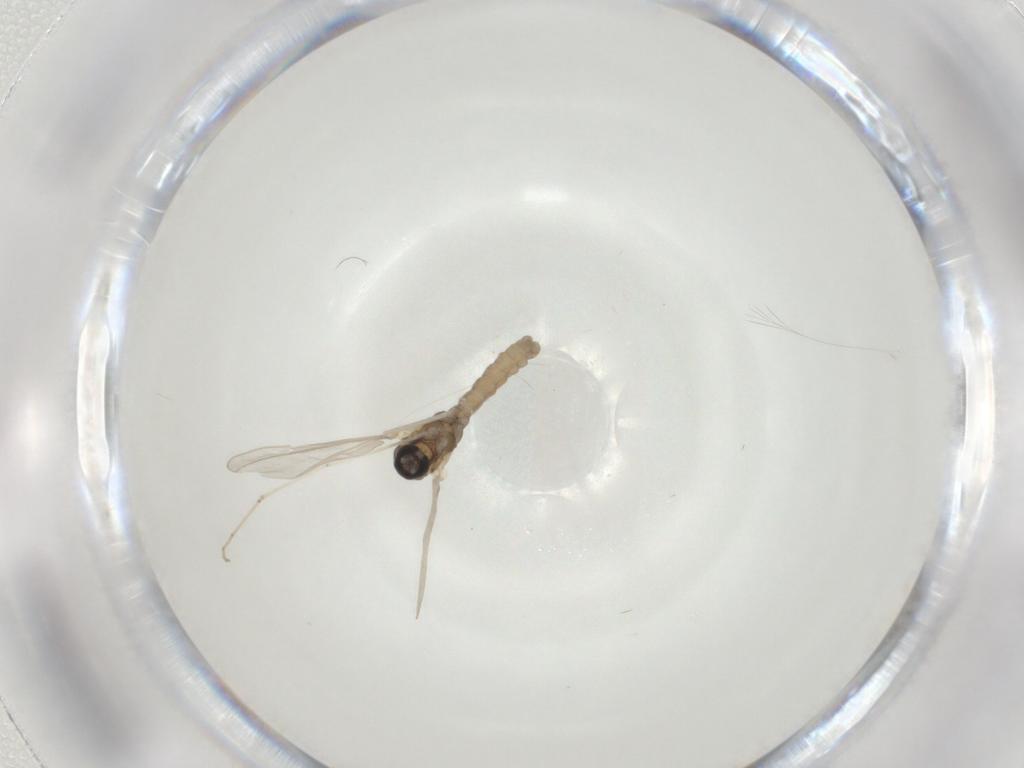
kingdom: Animalia
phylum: Arthropoda
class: Insecta
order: Diptera
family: Cecidomyiidae
